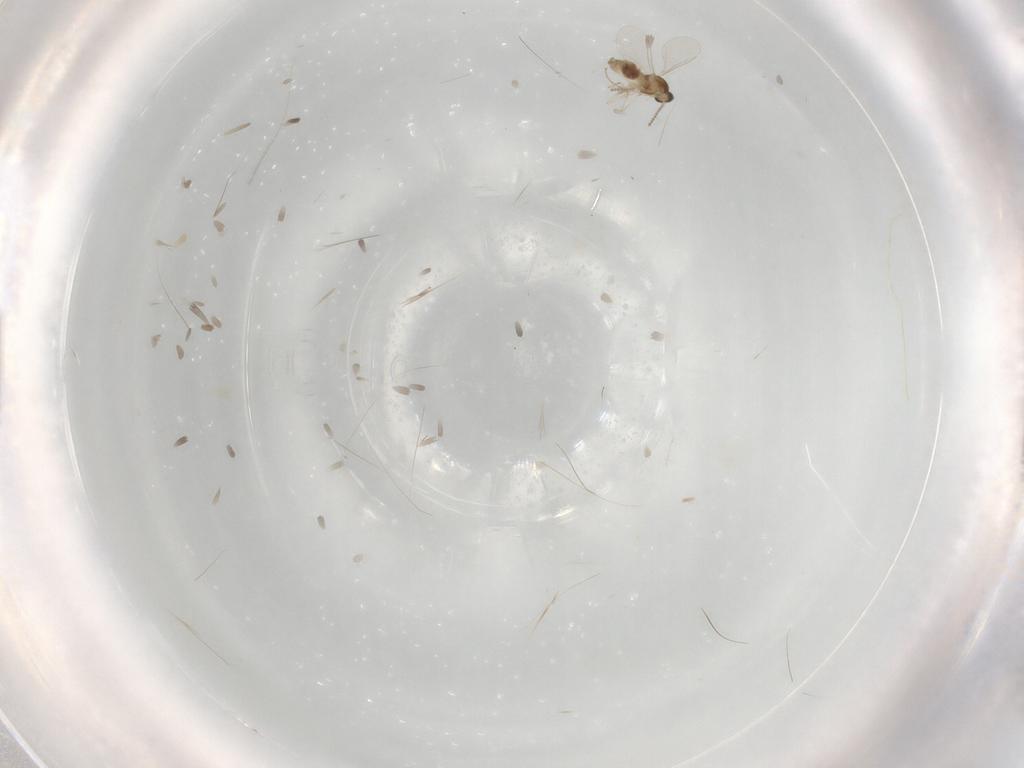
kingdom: Animalia
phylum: Arthropoda
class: Insecta
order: Diptera
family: Cecidomyiidae
